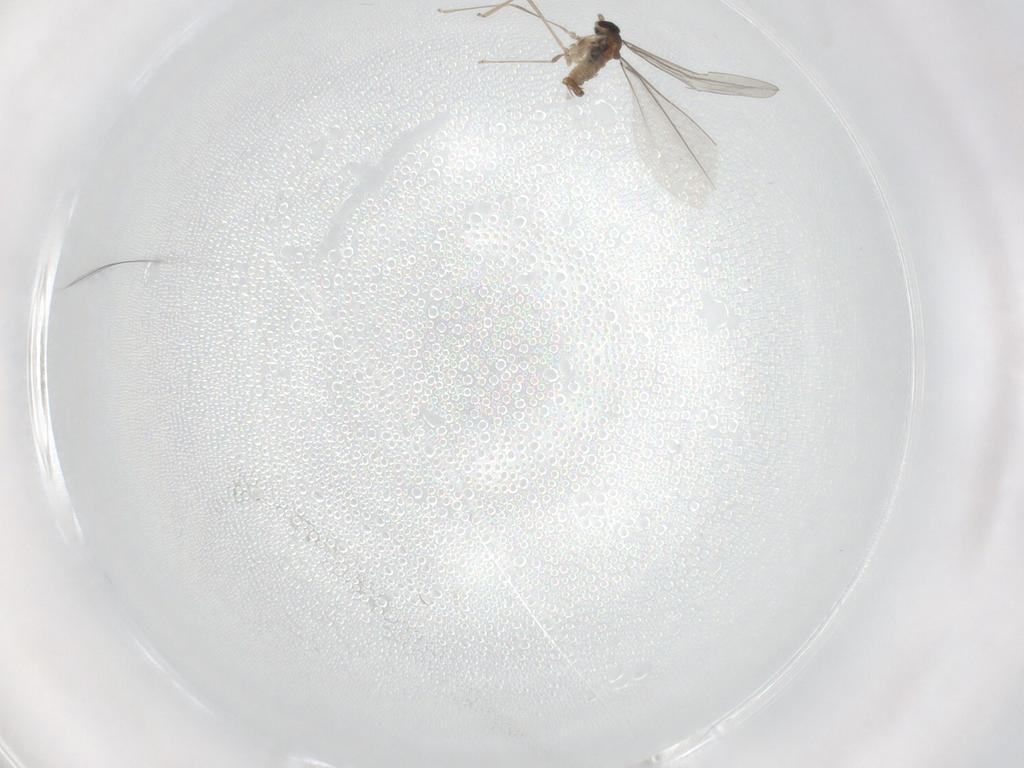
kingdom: Animalia
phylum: Arthropoda
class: Insecta
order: Diptera
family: Cecidomyiidae
